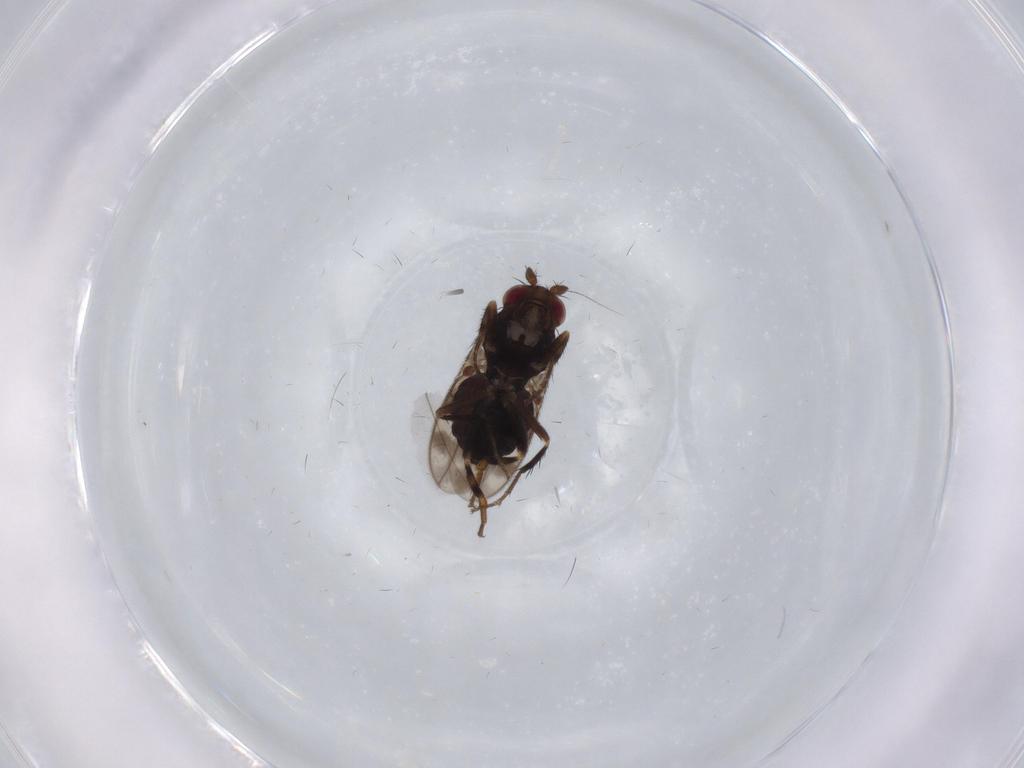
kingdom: Animalia
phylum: Arthropoda
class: Insecta
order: Diptera
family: Sphaeroceridae
